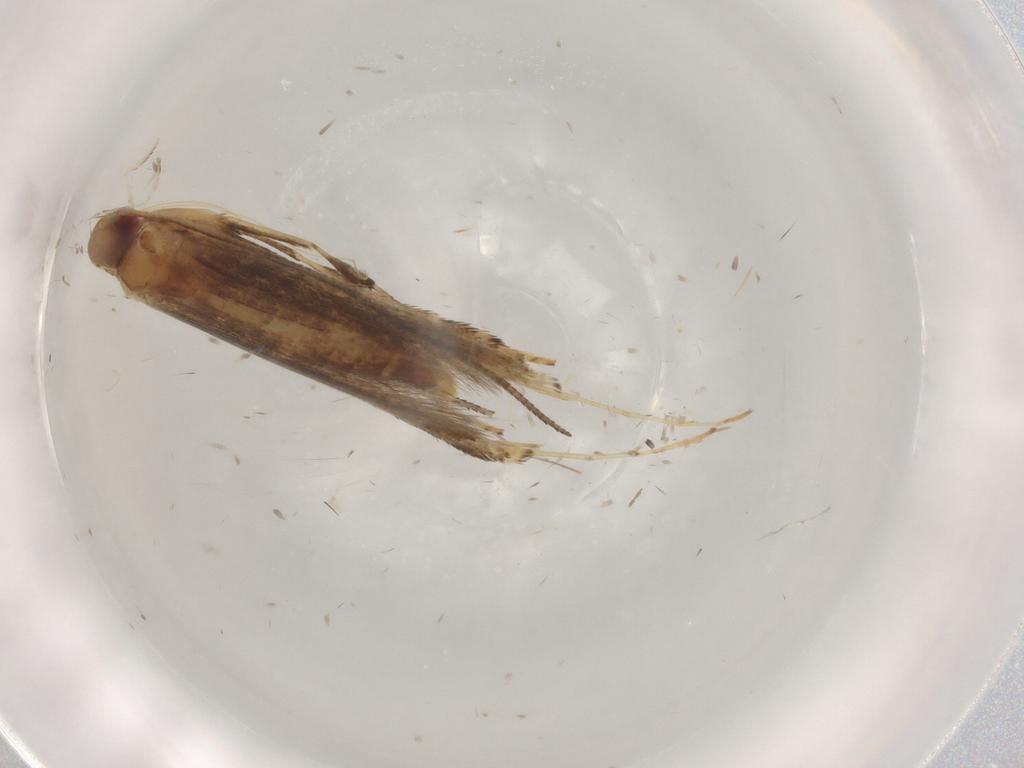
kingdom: Animalia
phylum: Arthropoda
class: Insecta
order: Lepidoptera
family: Gracillariidae
